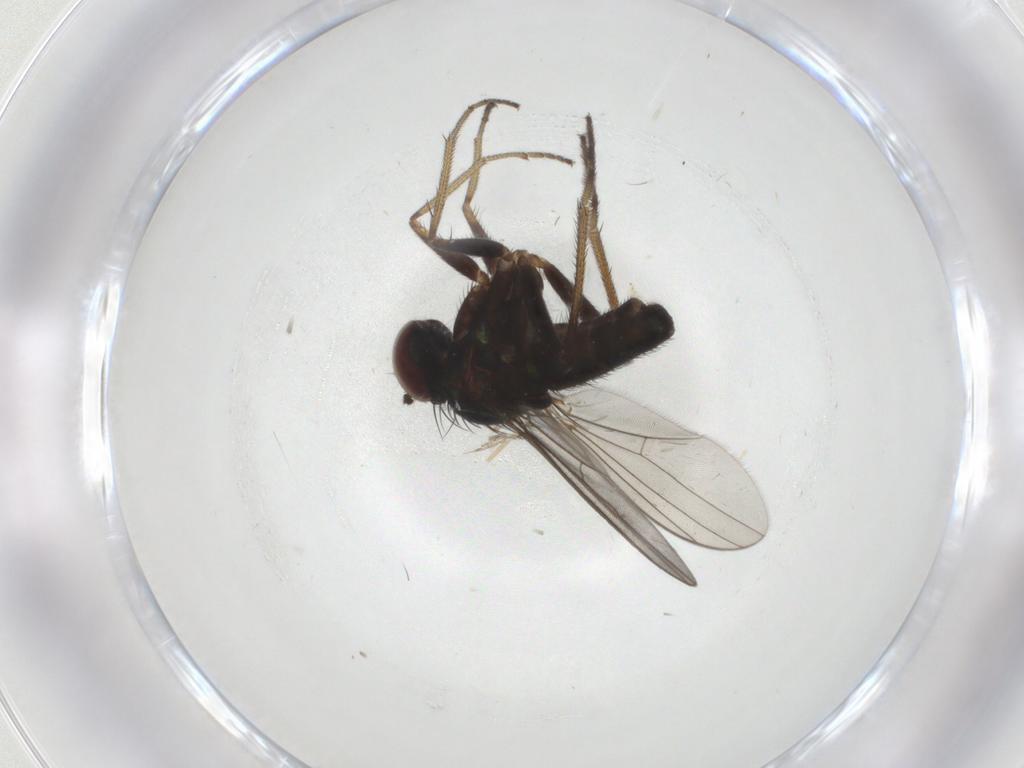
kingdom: Animalia
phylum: Arthropoda
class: Insecta
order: Diptera
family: Dolichopodidae
